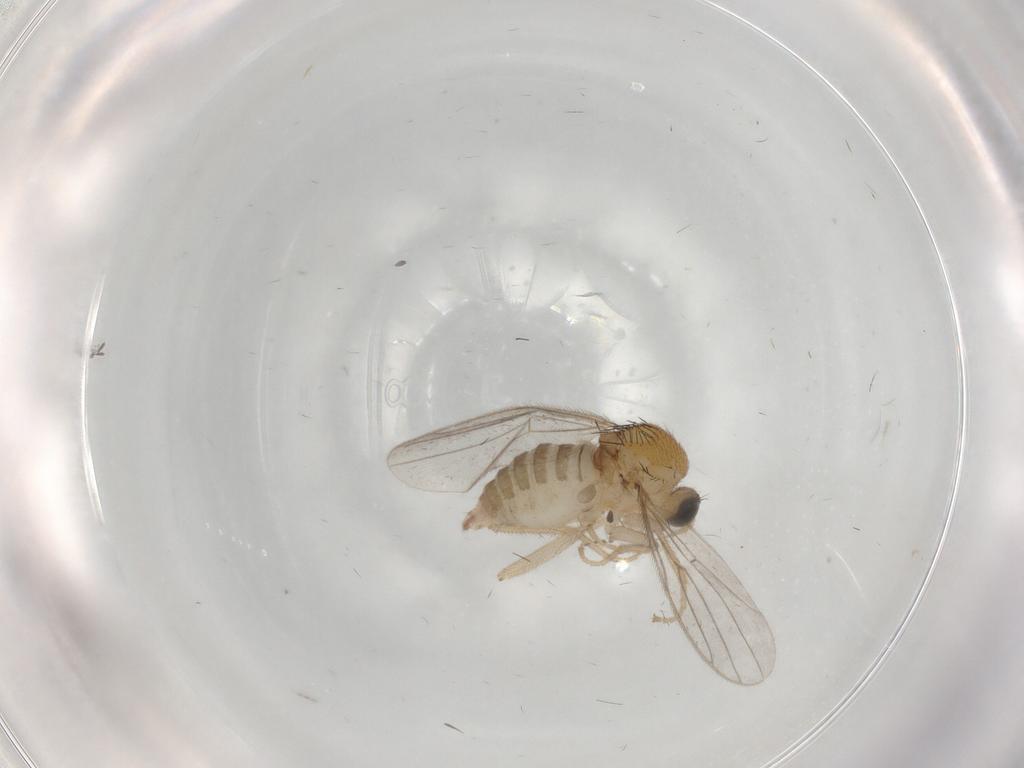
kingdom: Animalia
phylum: Arthropoda
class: Insecta
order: Diptera
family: Hybotidae
